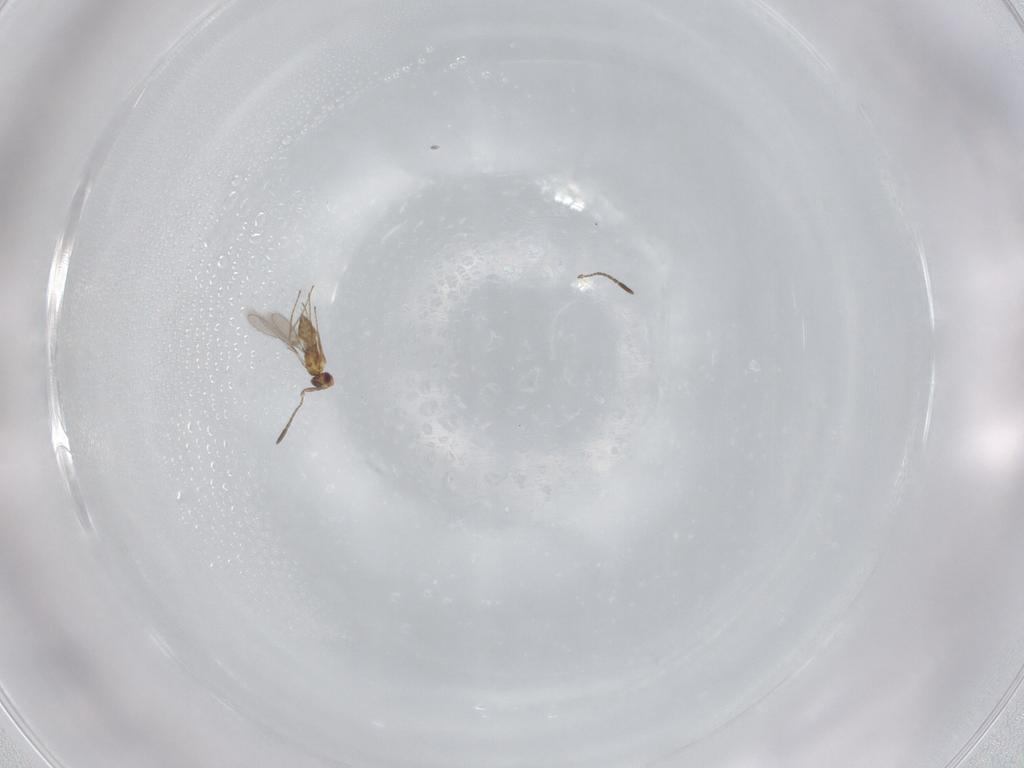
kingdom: Animalia
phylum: Arthropoda
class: Insecta
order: Hymenoptera
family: Mymaridae
